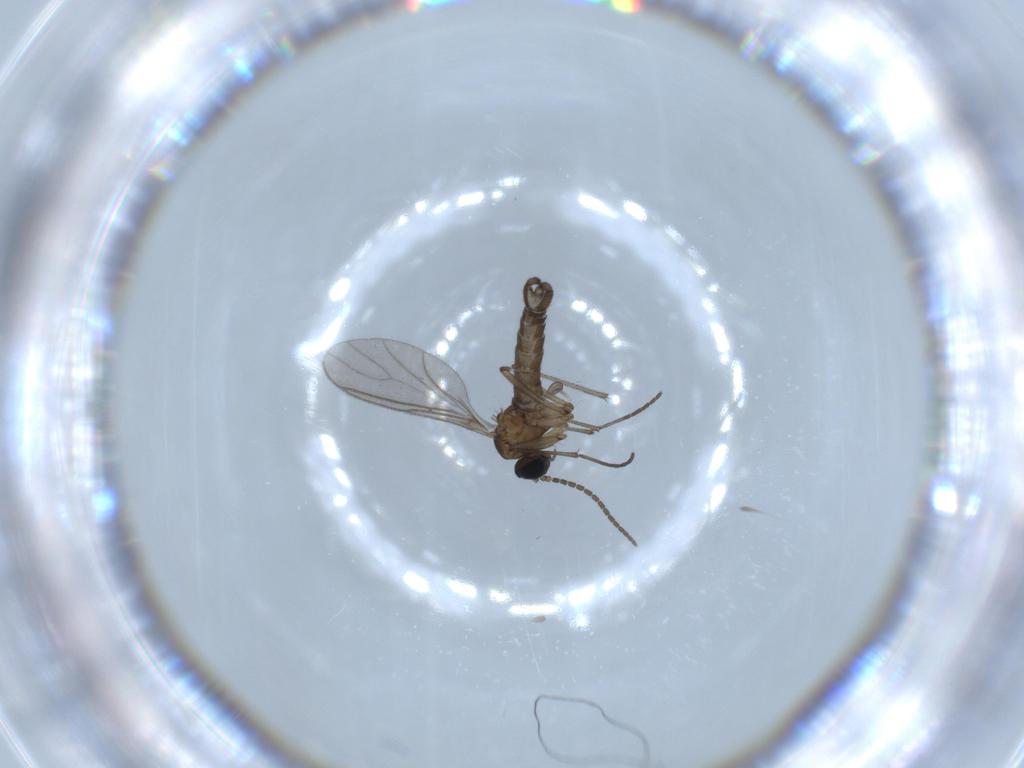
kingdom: Animalia
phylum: Arthropoda
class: Insecta
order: Diptera
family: Sciaridae
